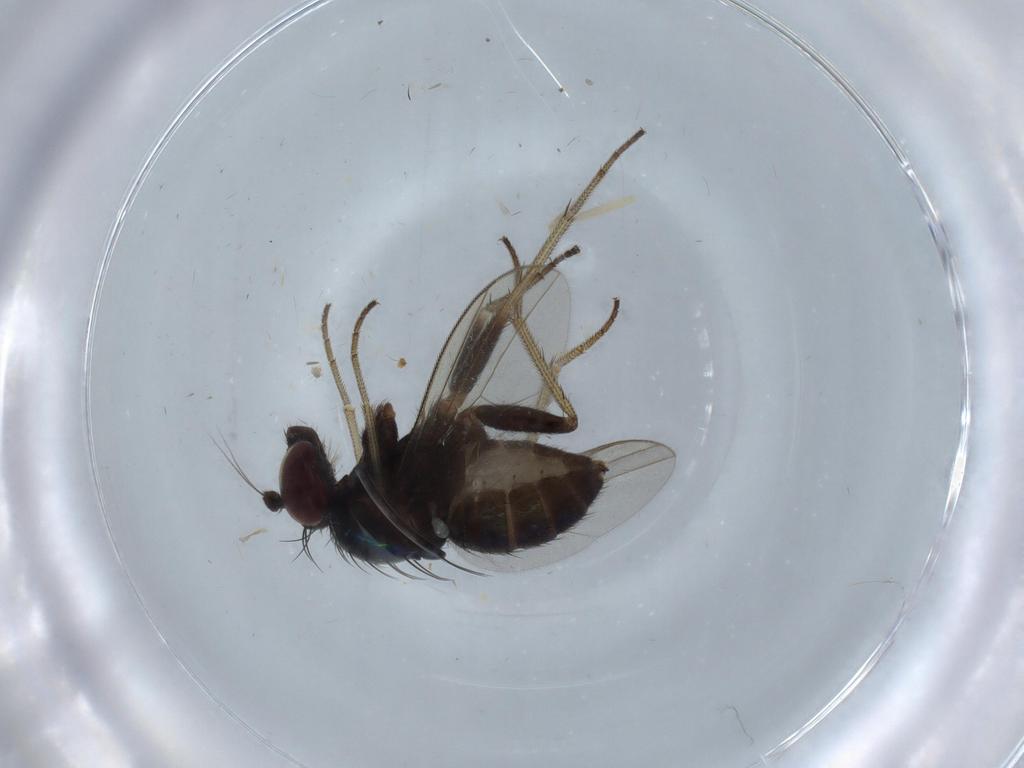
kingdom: Animalia
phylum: Arthropoda
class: Insecta
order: Diptera
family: Dolichopodidae
